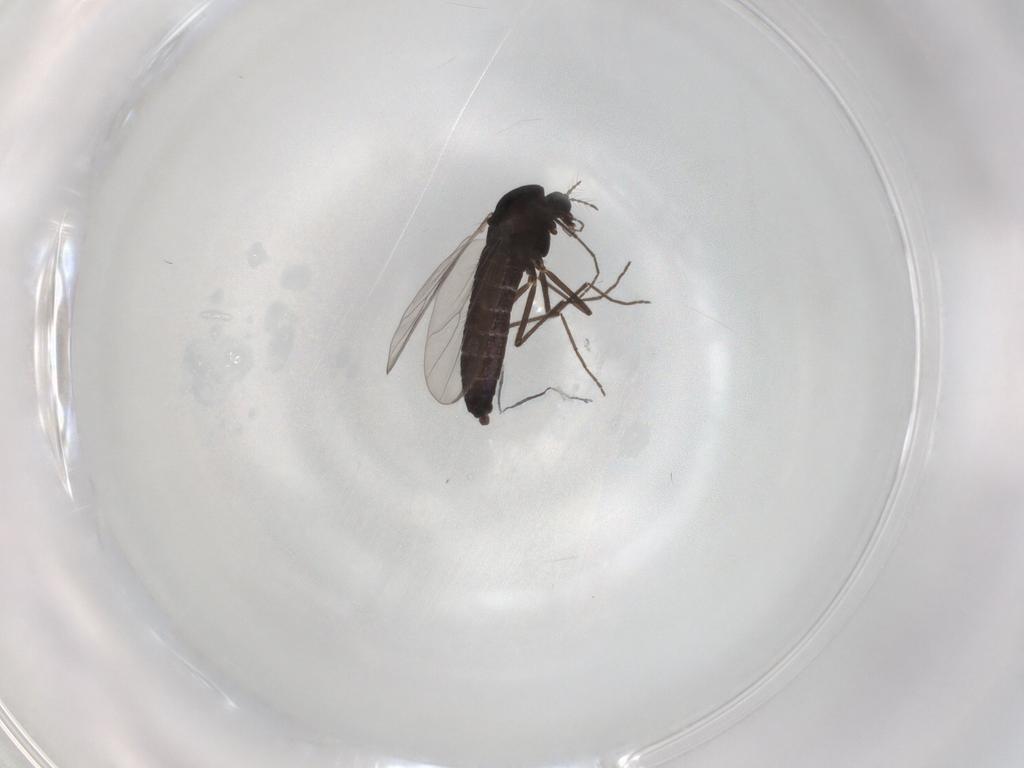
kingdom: Animalia
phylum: Arthropoda
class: Insecta
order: Diptera
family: Chironomidae
